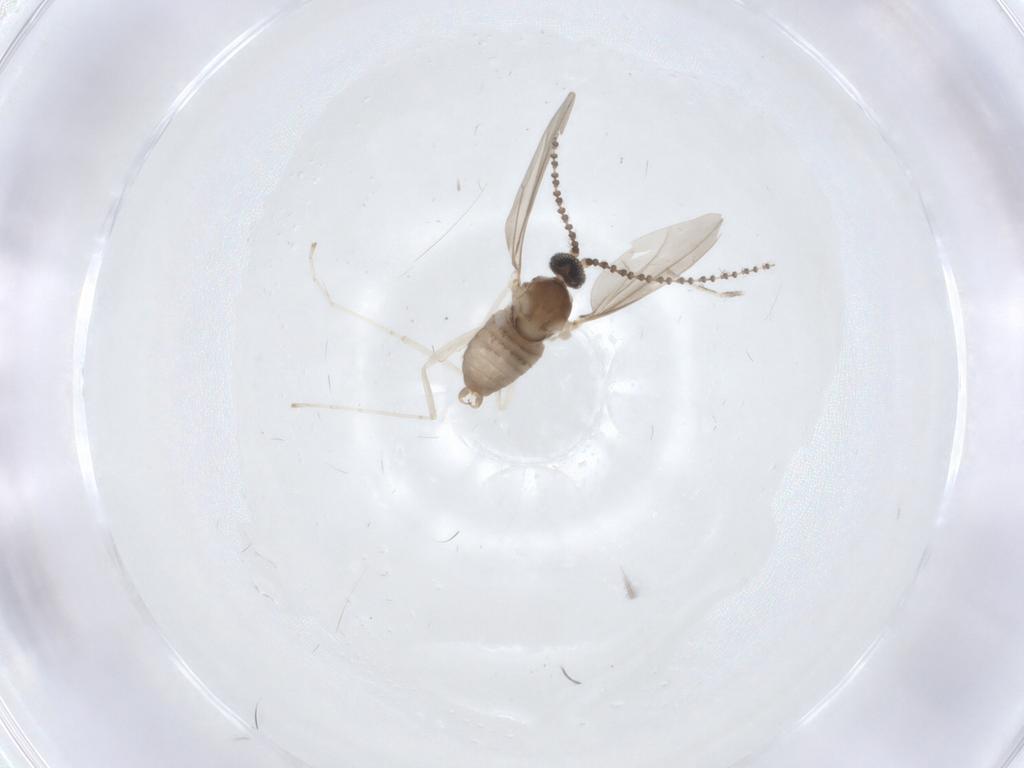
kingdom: Animalia
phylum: Arthropoda
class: Insecta
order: Diptera
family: Cecidomyiidae
